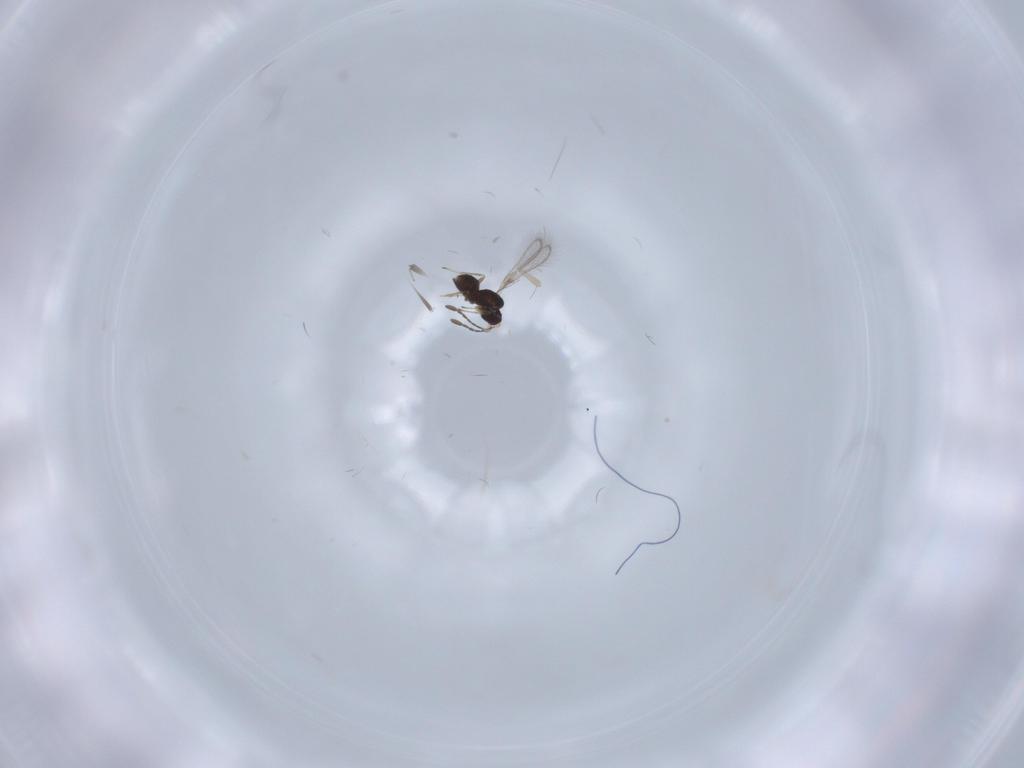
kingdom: Animalia
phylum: Arthropoda
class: Insecta
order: Hymenoptera
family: Mymaridae
